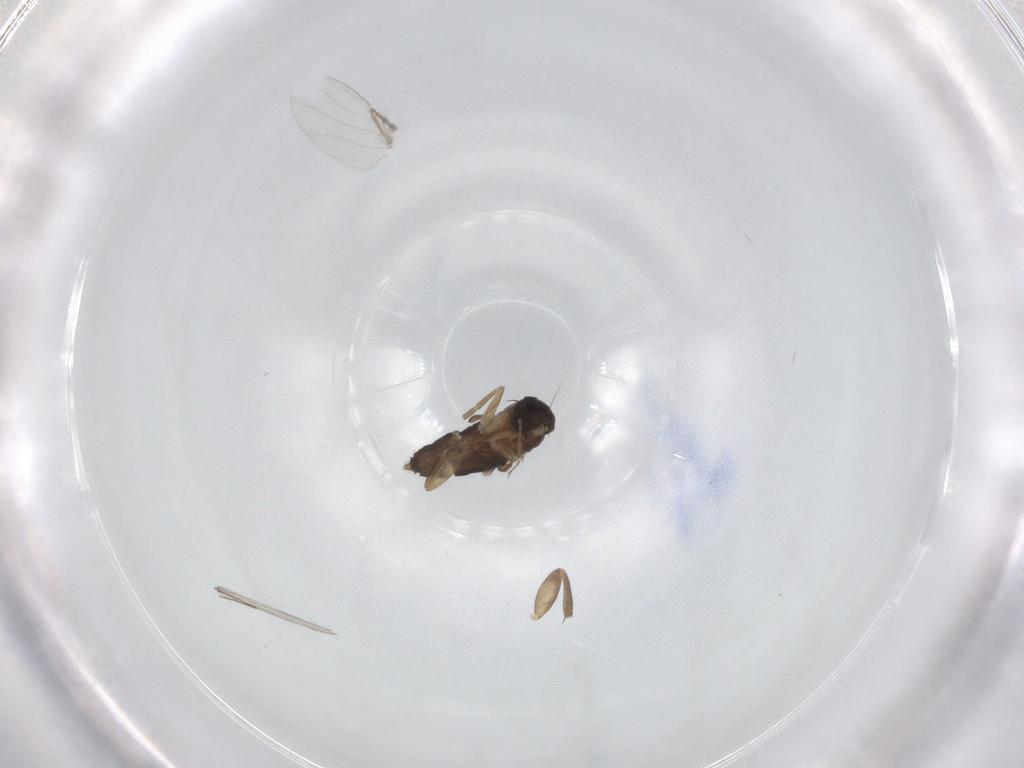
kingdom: Animalia
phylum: Arthropoda
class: Insecta
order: Diptera
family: Phoridae
